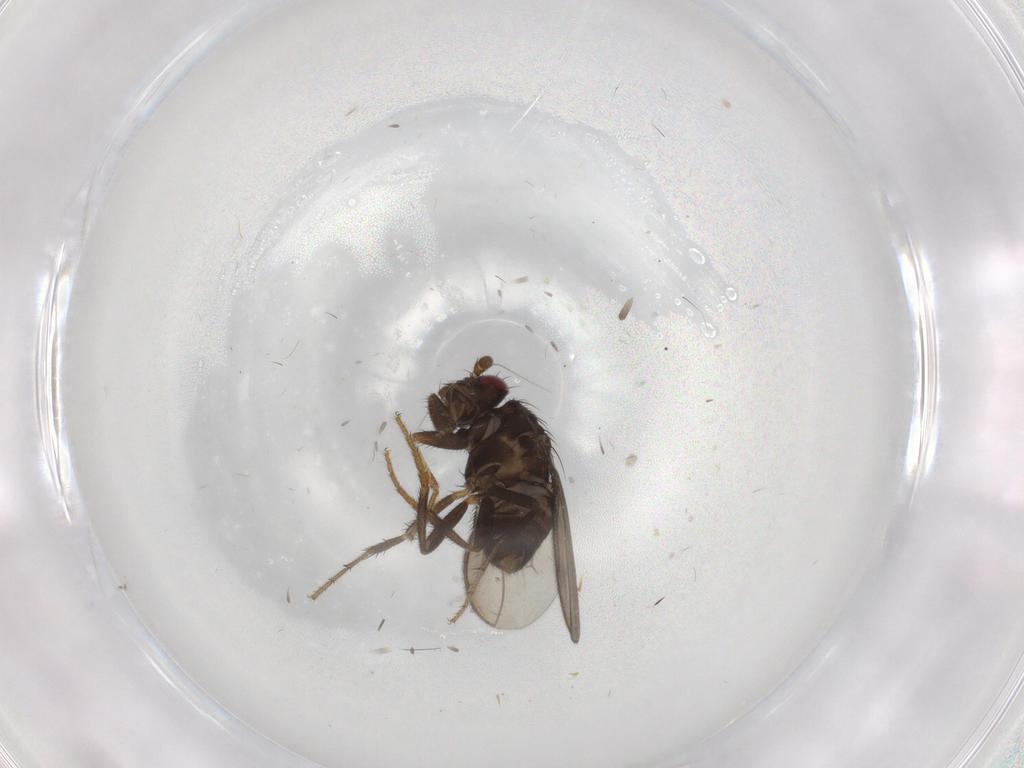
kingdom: Animalia
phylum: Arthropoda
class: Insecta
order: Diptera
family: Sphaeroceridae
